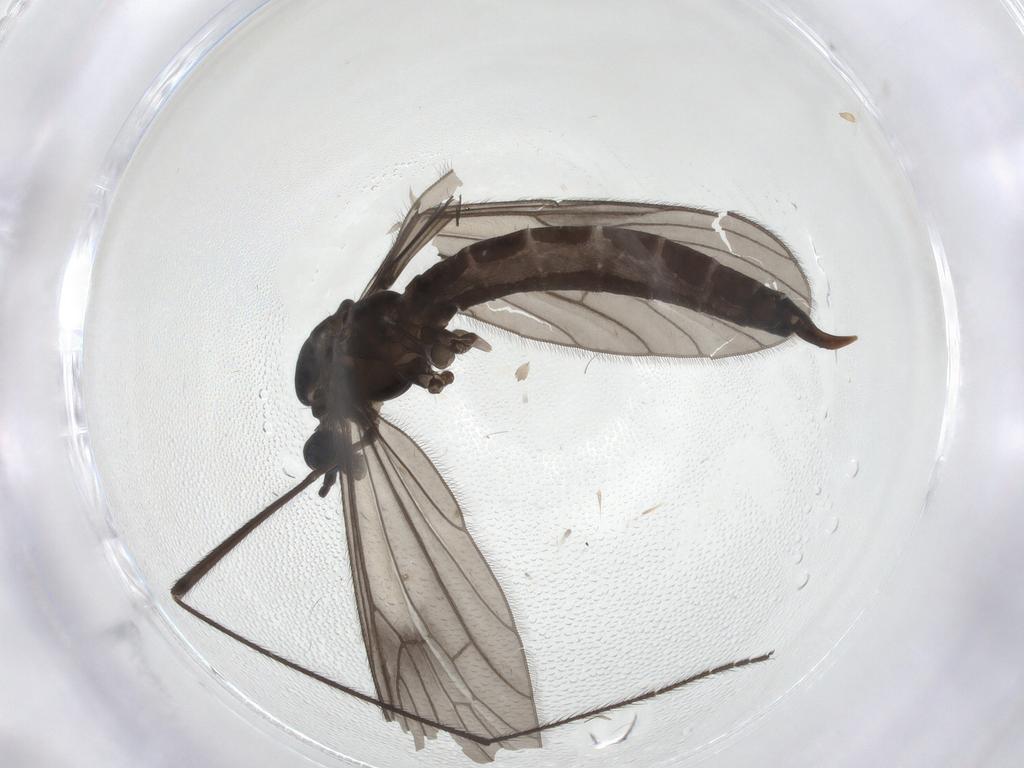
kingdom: Animalia
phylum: Arthropoda
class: Insecta
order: Diptera
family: Limoniidae
